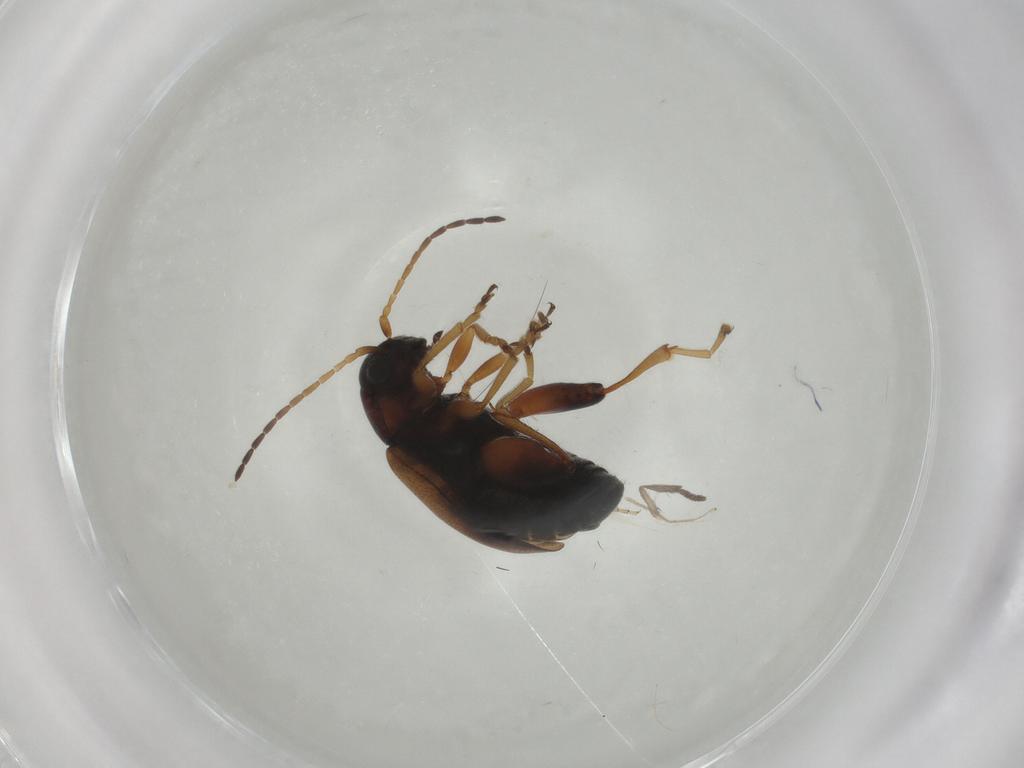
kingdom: Animalia
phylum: Arthropoda
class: Insecta
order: Coleoptera
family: Chrysomelidae
